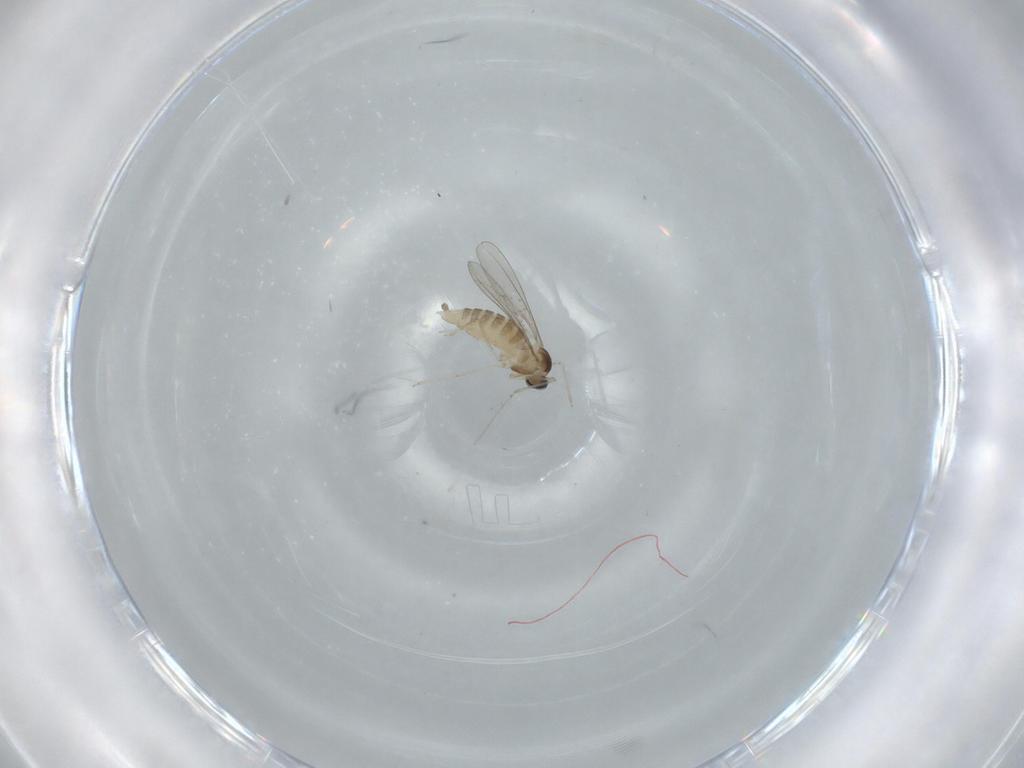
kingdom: Animalia
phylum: Arthropoda
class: Insecta
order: Diptera
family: Cecidomyiidae
